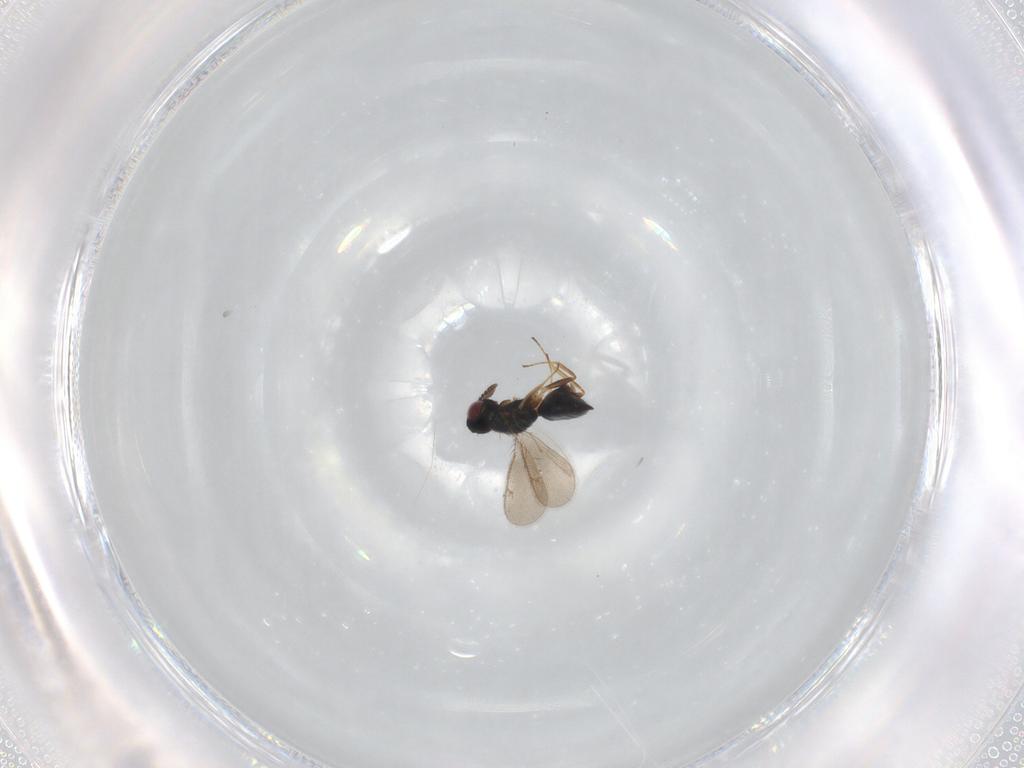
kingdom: Animalia
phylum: Arthropoda
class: Insecta
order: Hymenoptera
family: Mymaridae
